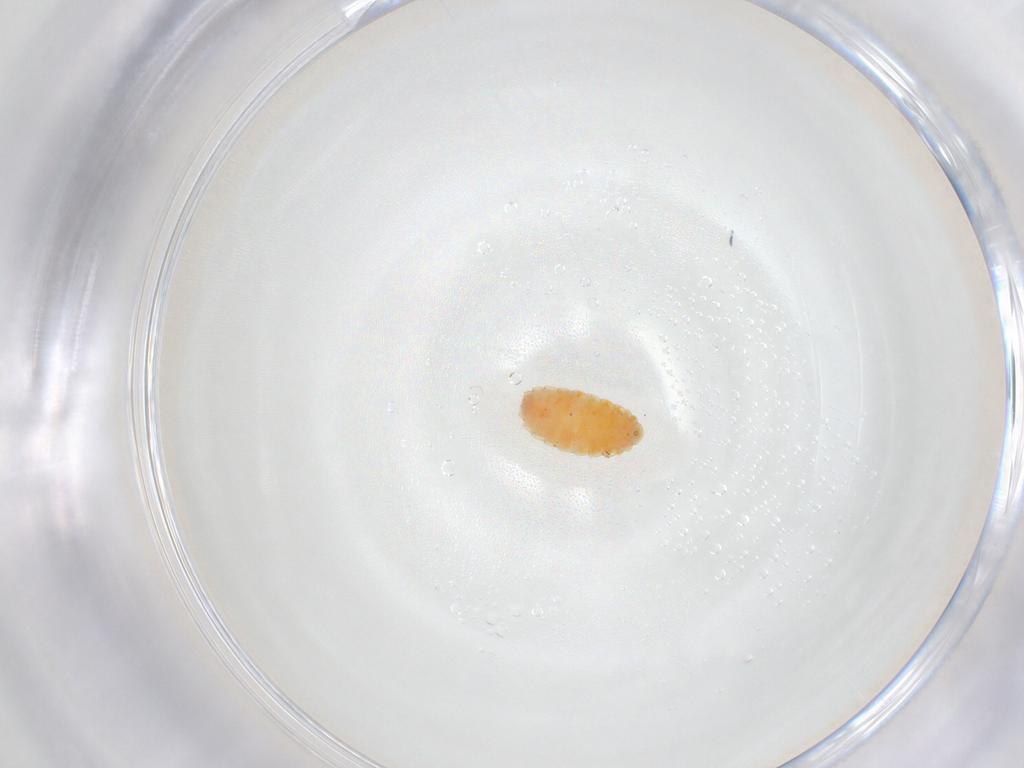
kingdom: Animalia
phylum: Arthropoda
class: Collembola
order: Poduromorpha
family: Hypogastruridae
